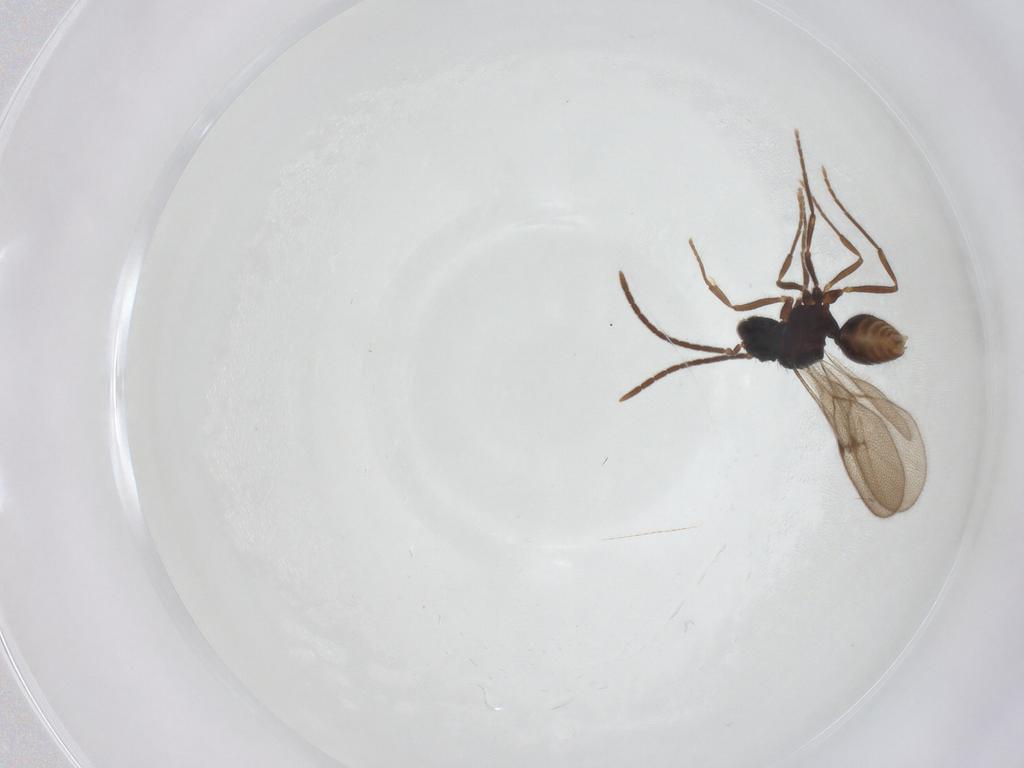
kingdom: Animalia
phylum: Arthropoda
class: Insecta
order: Hymenoptera
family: Formicidae
